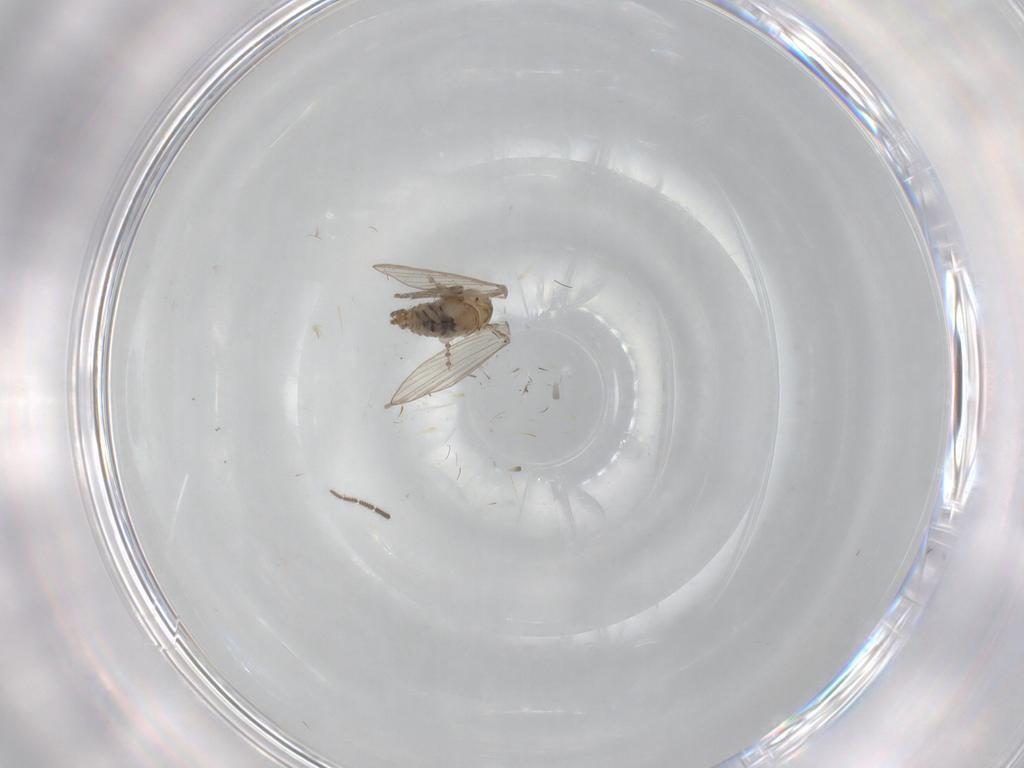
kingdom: Animalia
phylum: Arthropoda
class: Insecta
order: Diptera
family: Psychodidae
